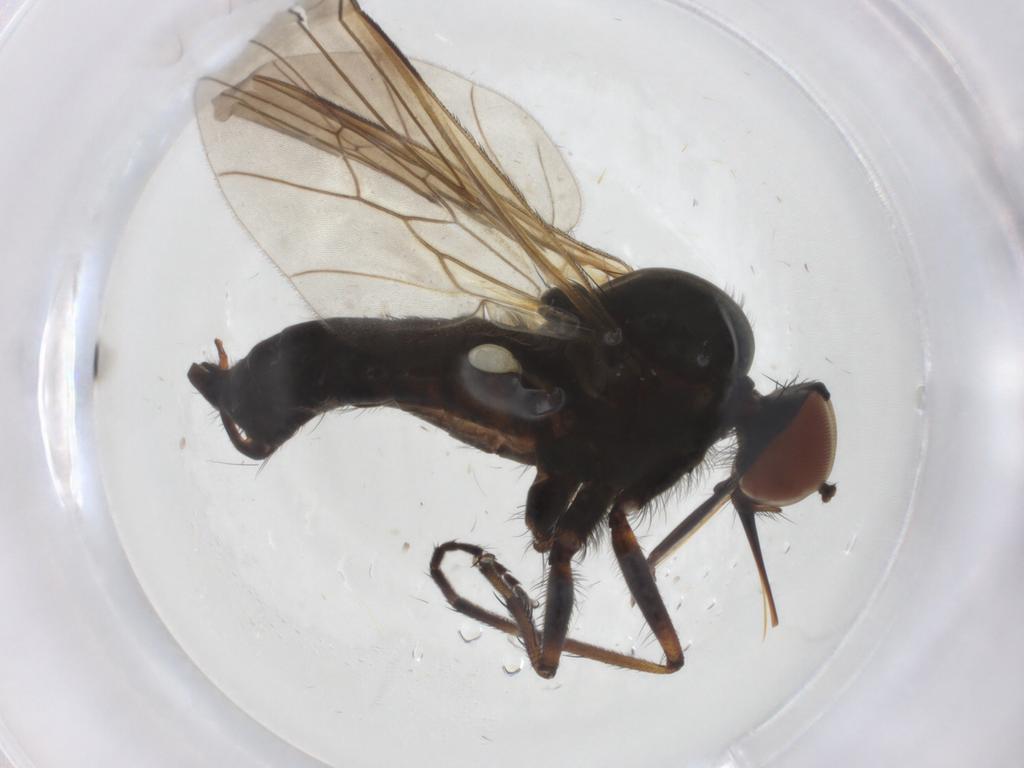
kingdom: Animalia
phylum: Arthropoda
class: Insecta
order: Diptera
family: Empididae
